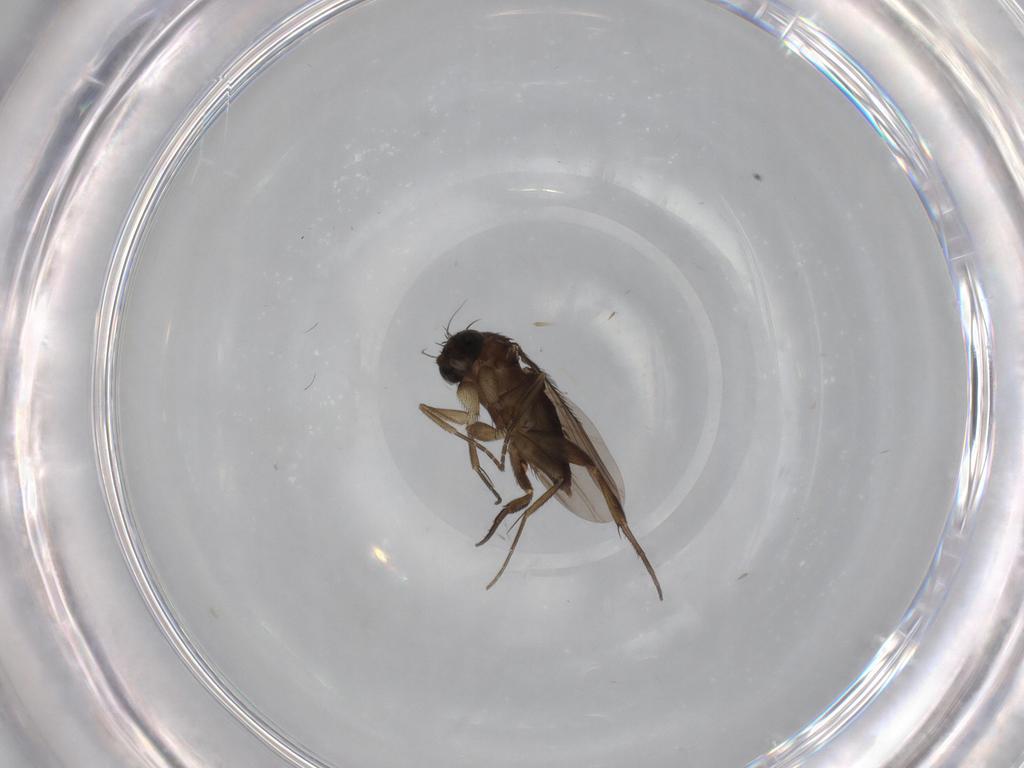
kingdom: Animalia
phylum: Arthropoda
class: Insecta
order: Diptera
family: Phoridae
